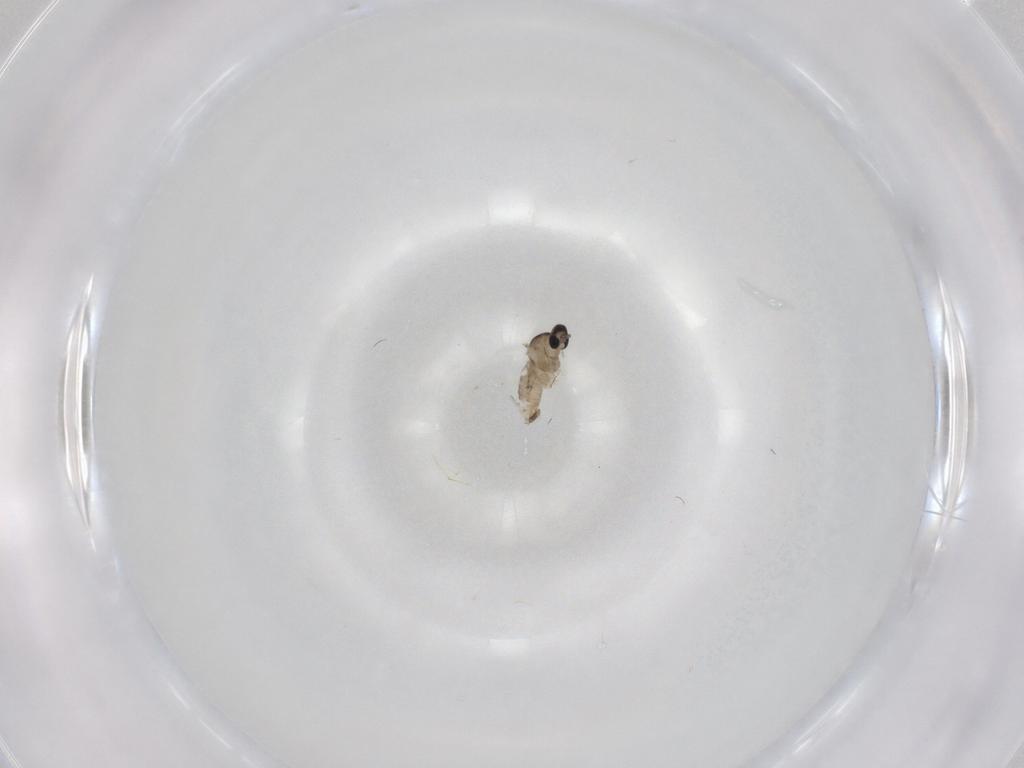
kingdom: Animalia
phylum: Arthropoda
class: Insecta
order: Diptera
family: Cecidomyiidae
